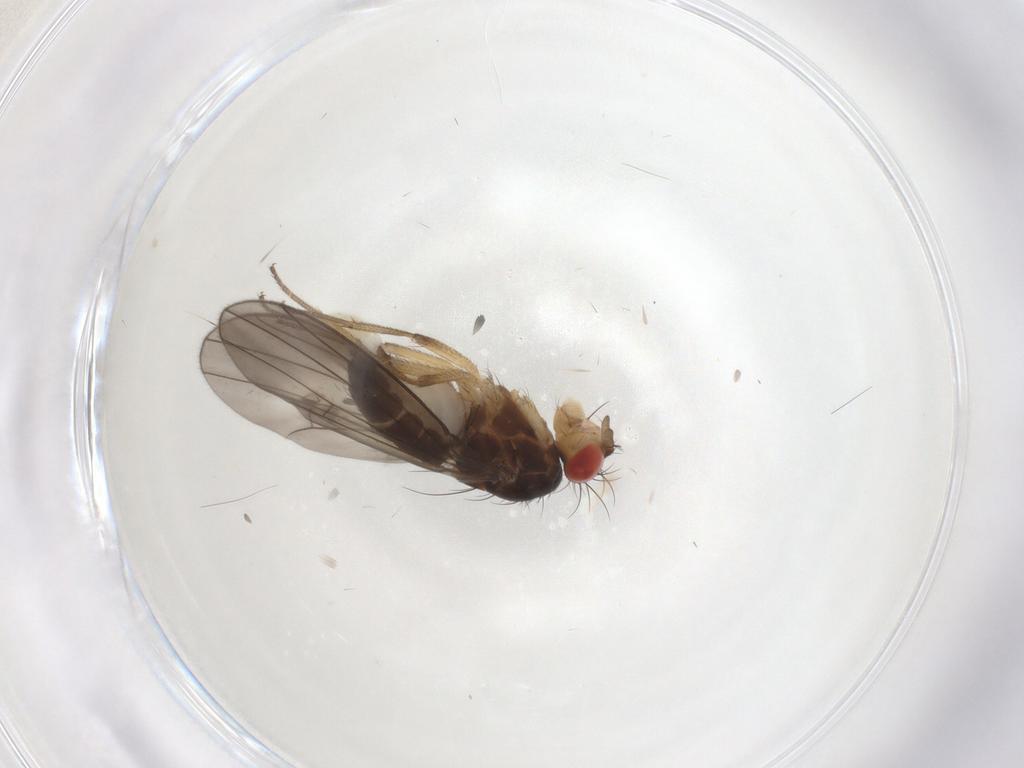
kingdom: Animalia
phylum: Arthropoda
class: Insecta
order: Diptera
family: Drosophilidae
